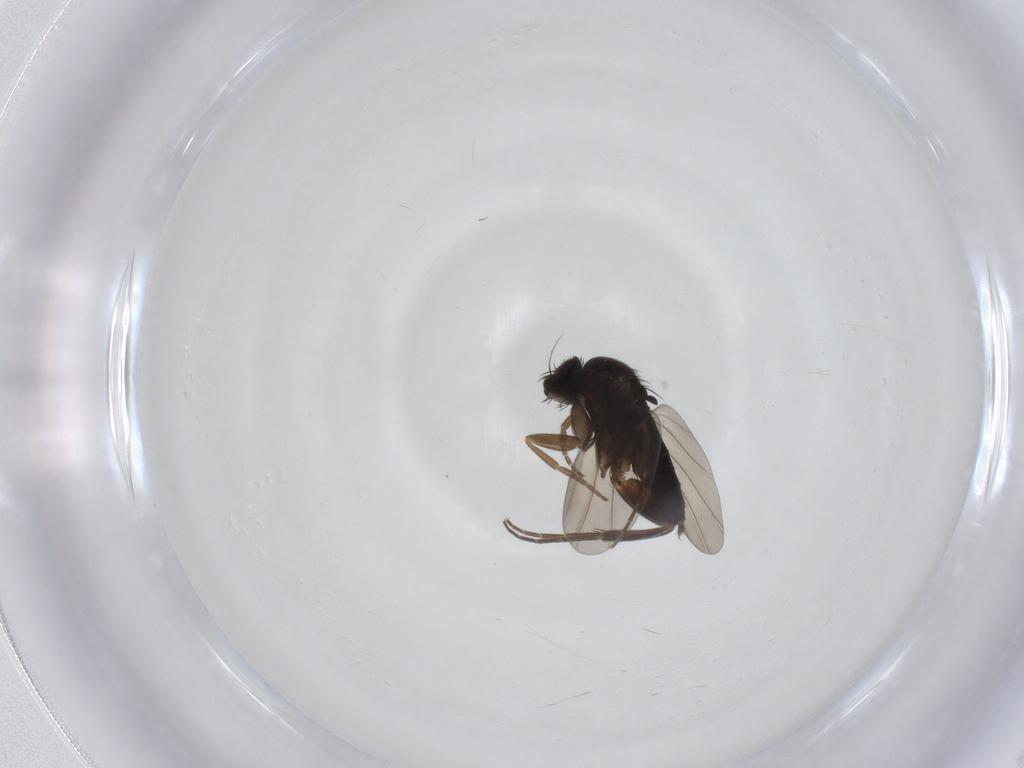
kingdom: Animalia
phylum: Arthropoda
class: Insecta
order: Diptera
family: Phoridae
